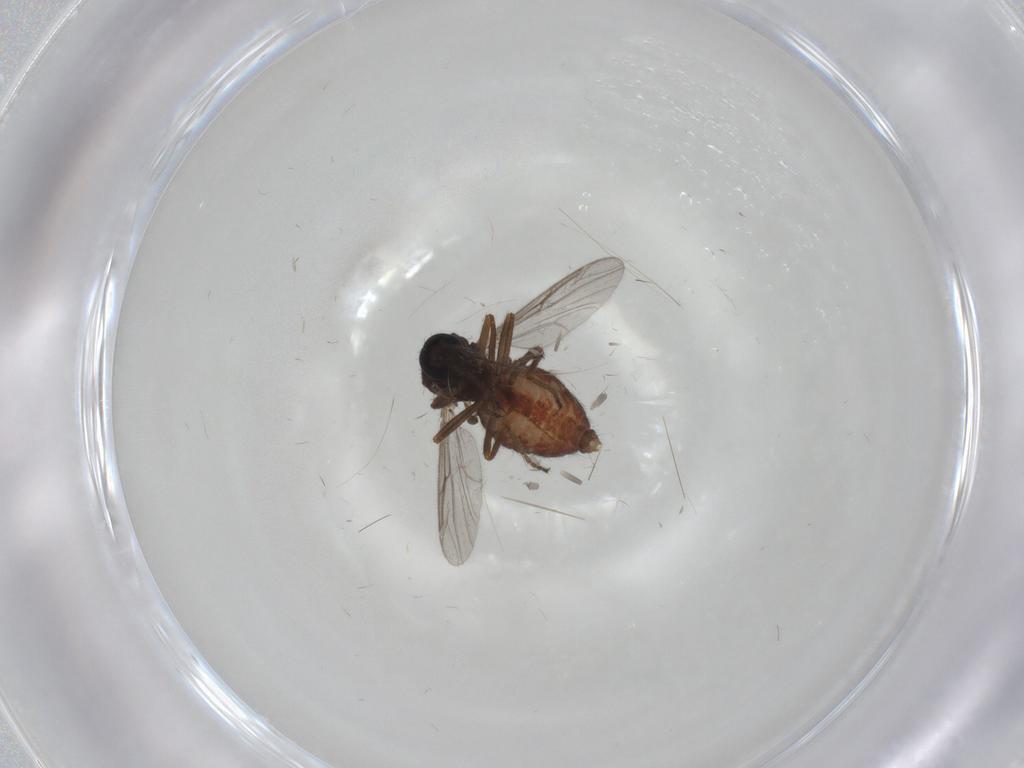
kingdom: Animalia
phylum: Arthropoda
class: Insecta
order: Diptera
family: Ceratopogonidae
